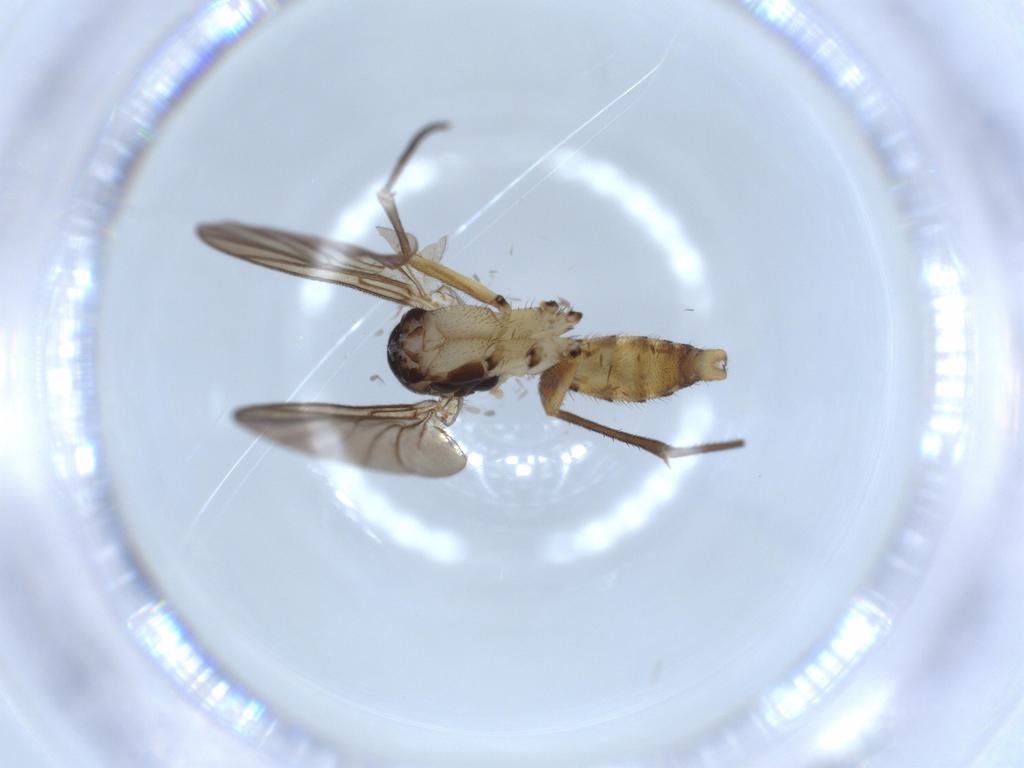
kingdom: Animalia
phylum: Arthropoda
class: Insecta
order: Diptera
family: Mycetophilidae
